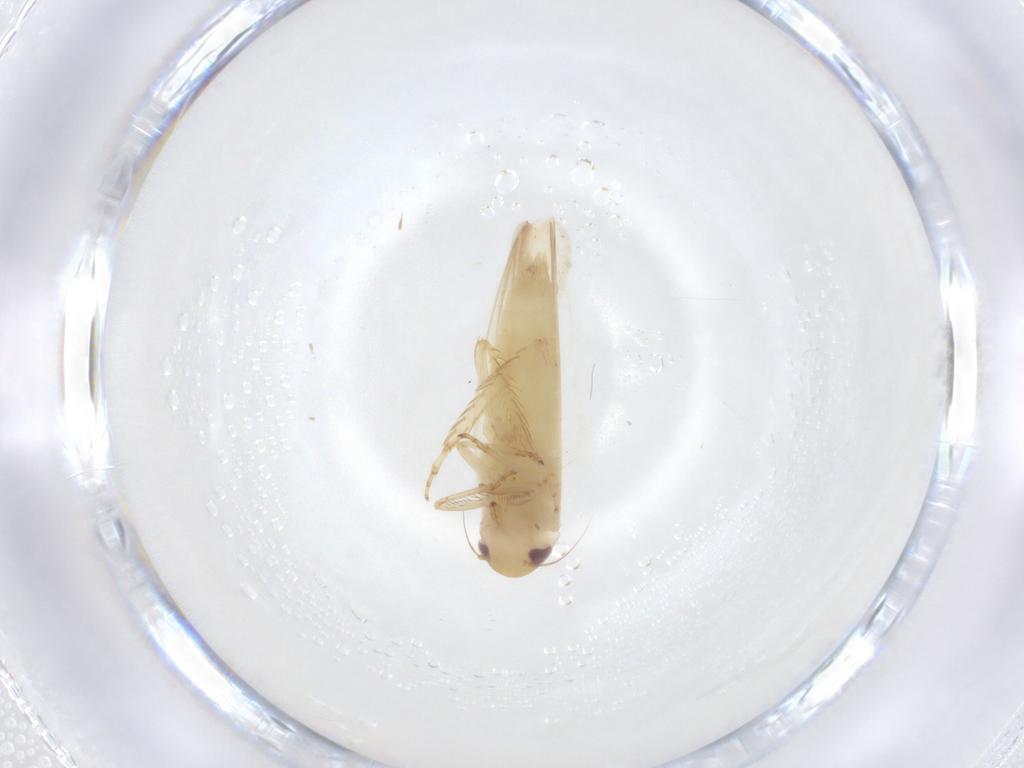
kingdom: Animalia
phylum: Arthropoda
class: Insecta
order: Hemiptera
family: Cicadellidae
